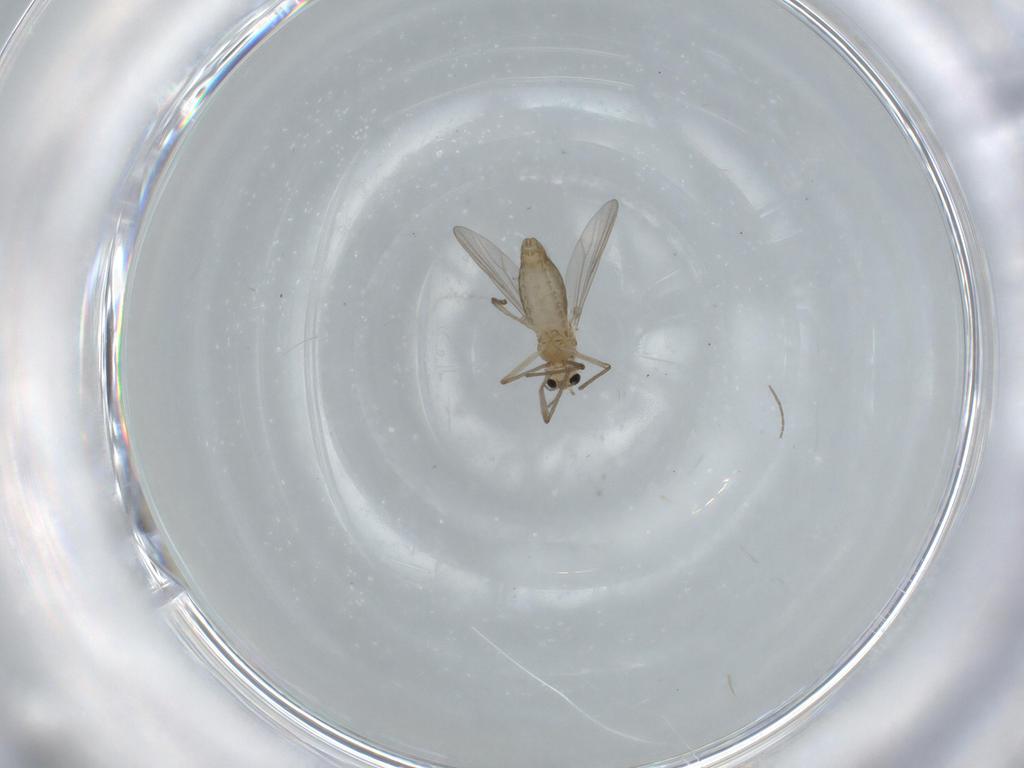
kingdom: Animalia
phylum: Arthropoda
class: Insecta
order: Diptera
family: Chironomidae
